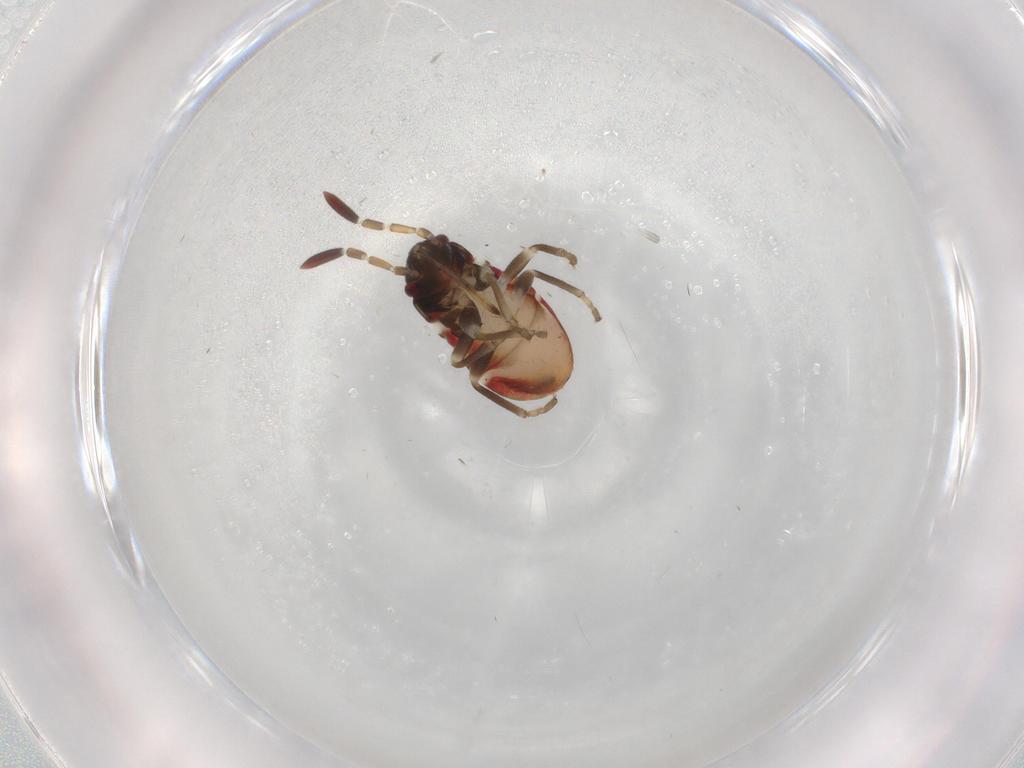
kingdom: Animalia
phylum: Arthropoda
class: Insecta
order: Hemiptera
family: Rhyparochromidae
